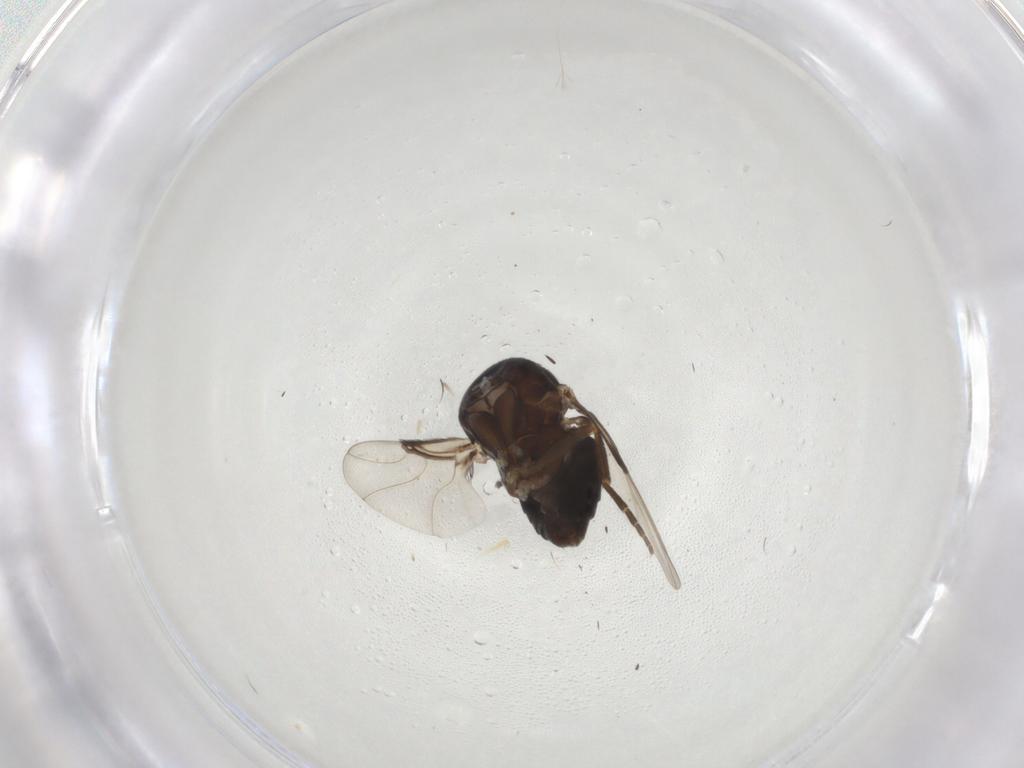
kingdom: Animalia
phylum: Arthropoda
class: Insecta
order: Diptera
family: Phoridae
